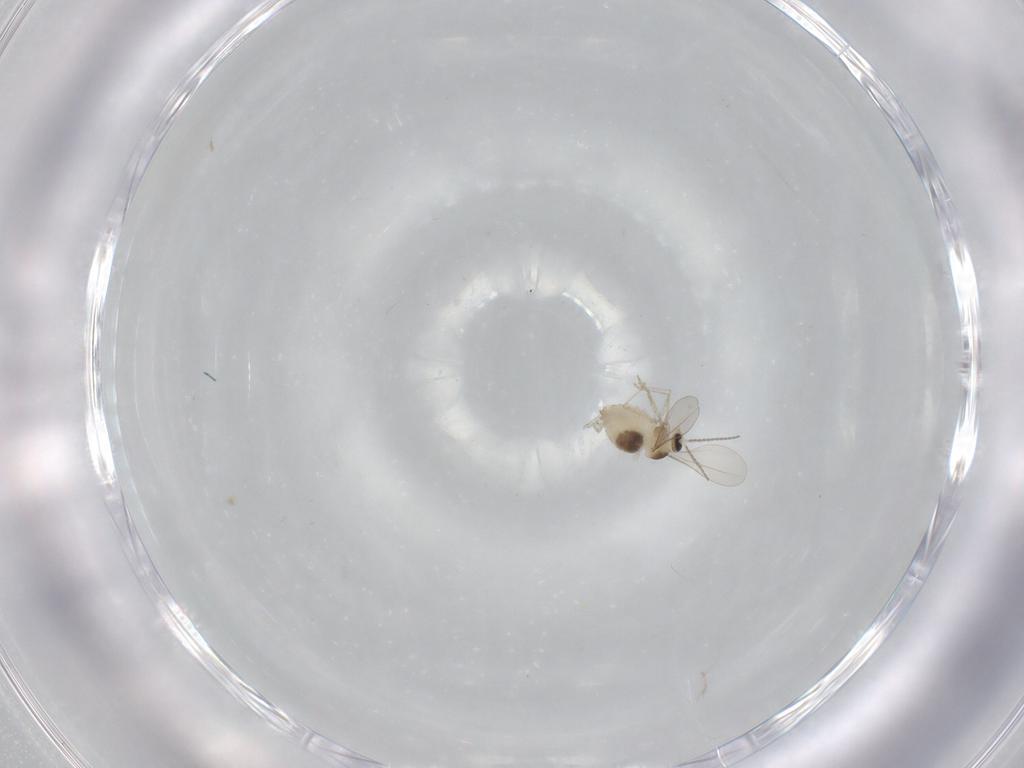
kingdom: Animalia
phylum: Arthropoda
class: Insecta
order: Diptera
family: Cecidomyiidae
